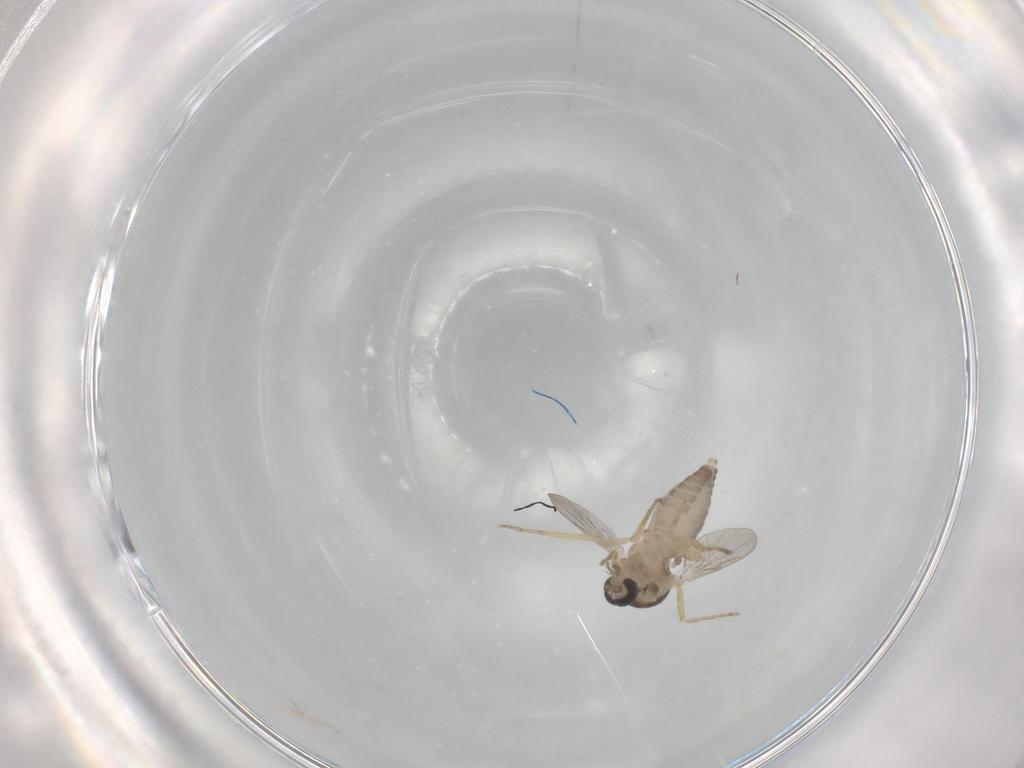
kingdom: Animalia
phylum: Arthropoda
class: Insecta
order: Diptera
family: Ceratopogonidae
